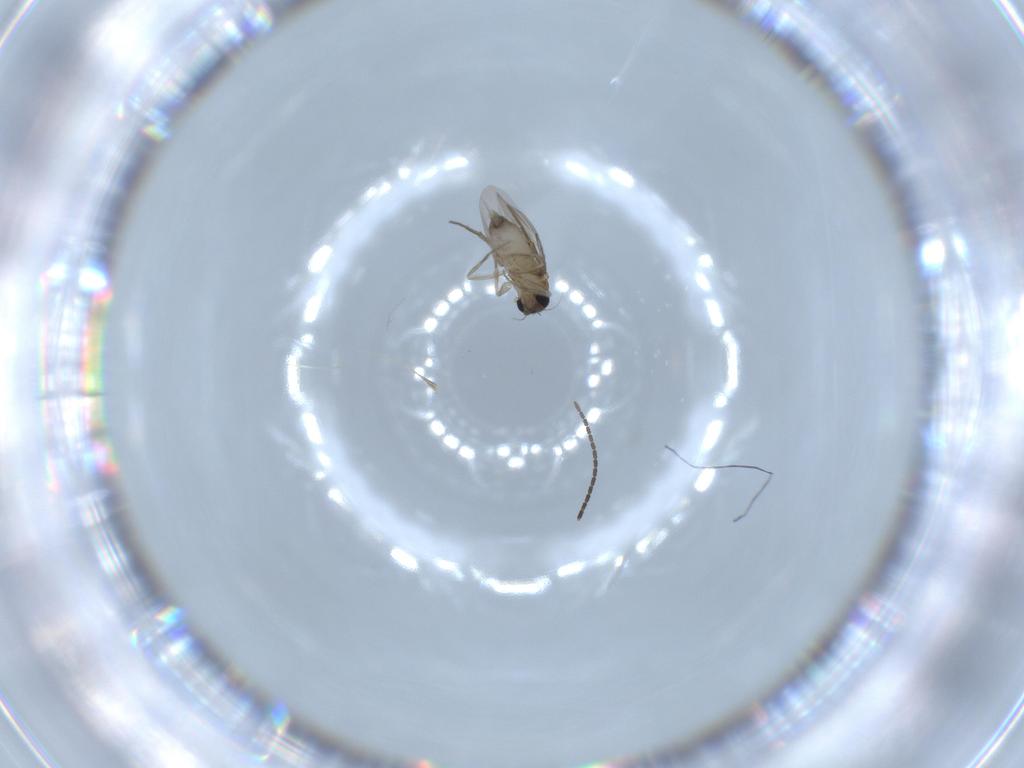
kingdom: Animalia
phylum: Arthropoda
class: Insecta
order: Diptera
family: Phoridae
